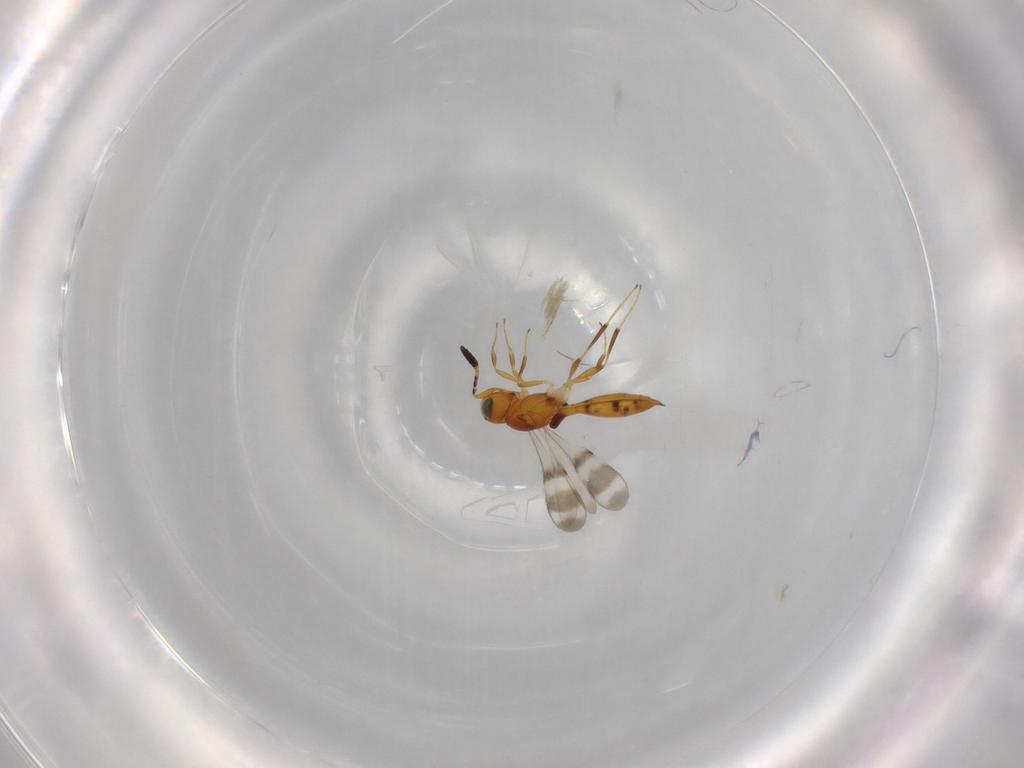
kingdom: Animalia
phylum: Arthropoda
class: Insecta
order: Hymenoptera
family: Scelionidae
